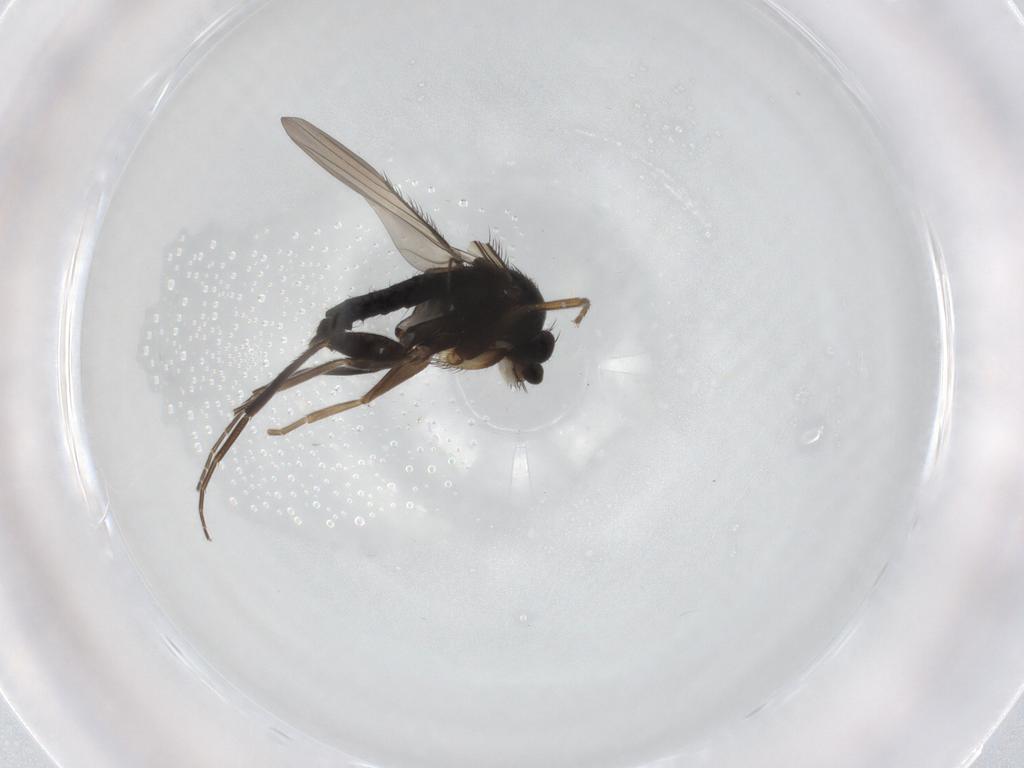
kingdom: Animalia
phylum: Arthropoda
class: Insecta
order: Diptera
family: Phoridae
